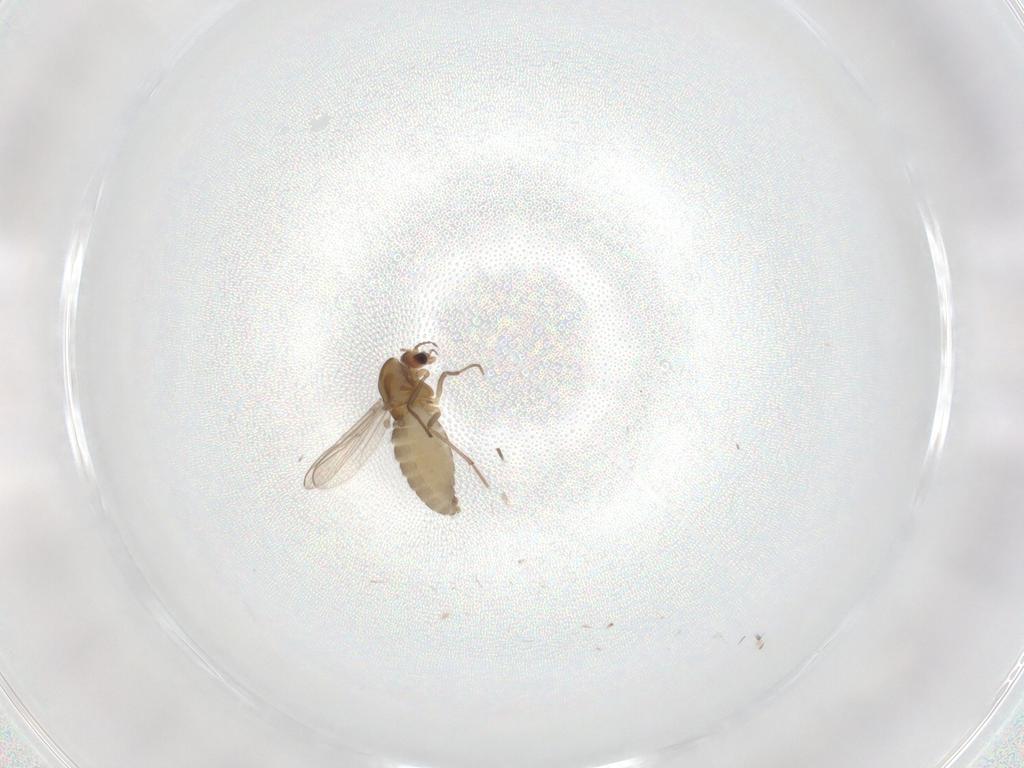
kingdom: Animalia
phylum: Arthropoda
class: Insecta
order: Diptera
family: Chironomidae
